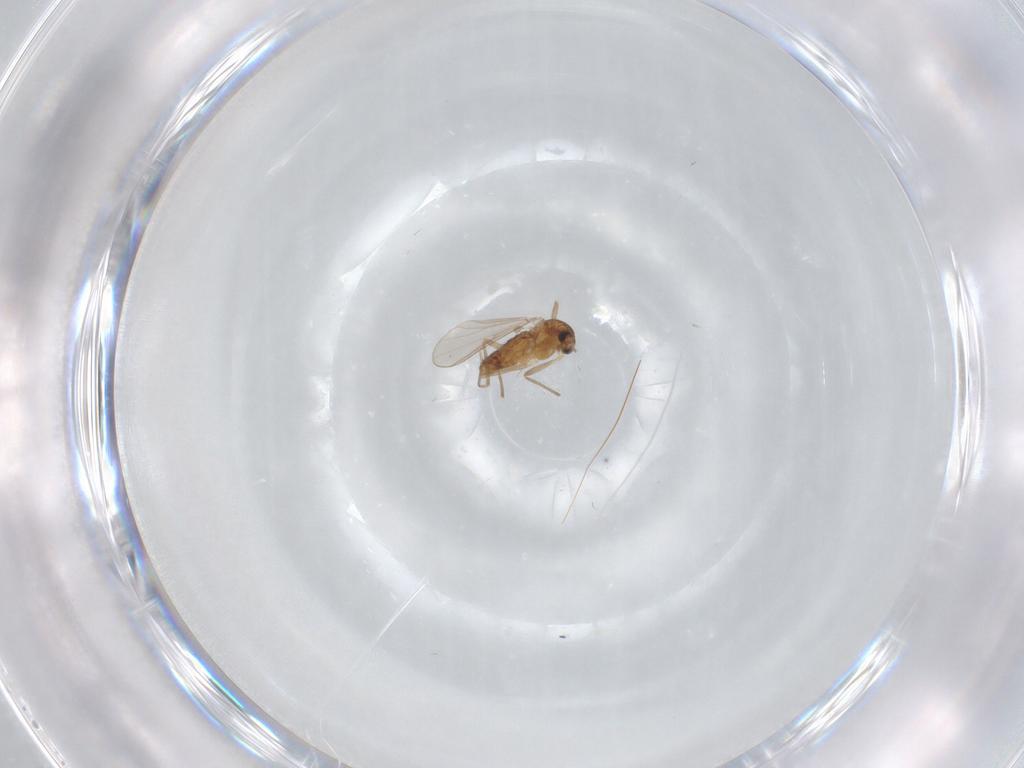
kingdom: Animalia
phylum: Arthropoda
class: Insecta
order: Diptera
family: Chironomidae
